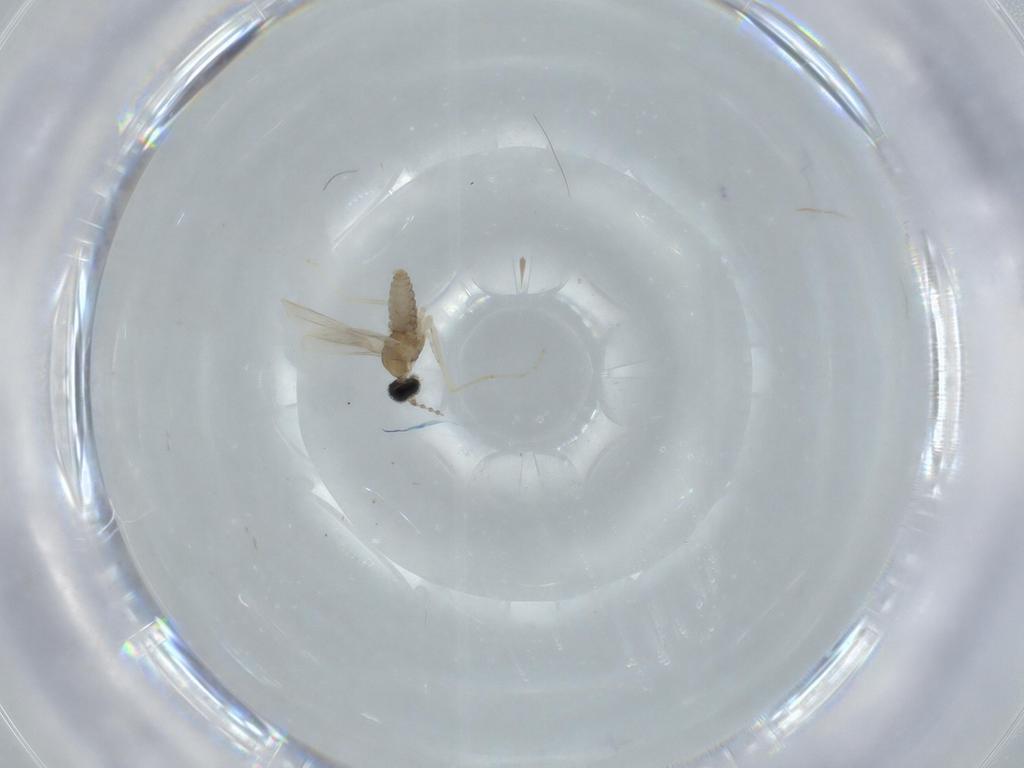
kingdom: Animalia
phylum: Arthropoda
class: Insecta
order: Diptera
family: Cecidomyiidae
